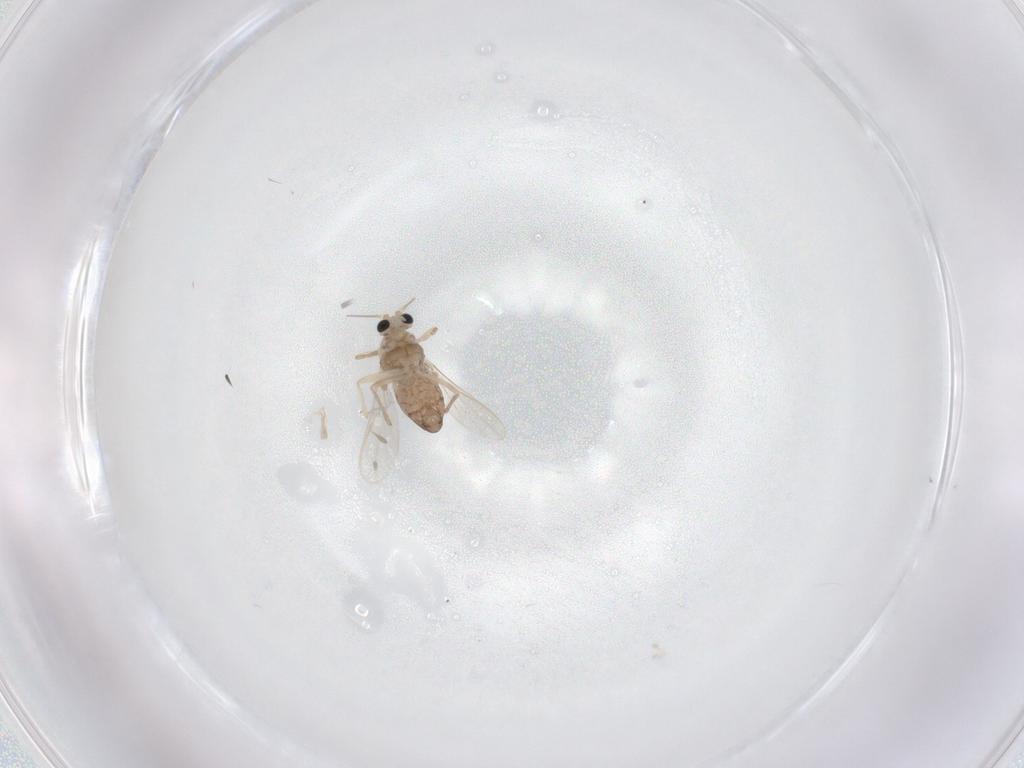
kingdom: Animalia
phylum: Arthropoda
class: Insecta
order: Diptera
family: Chironomidae
